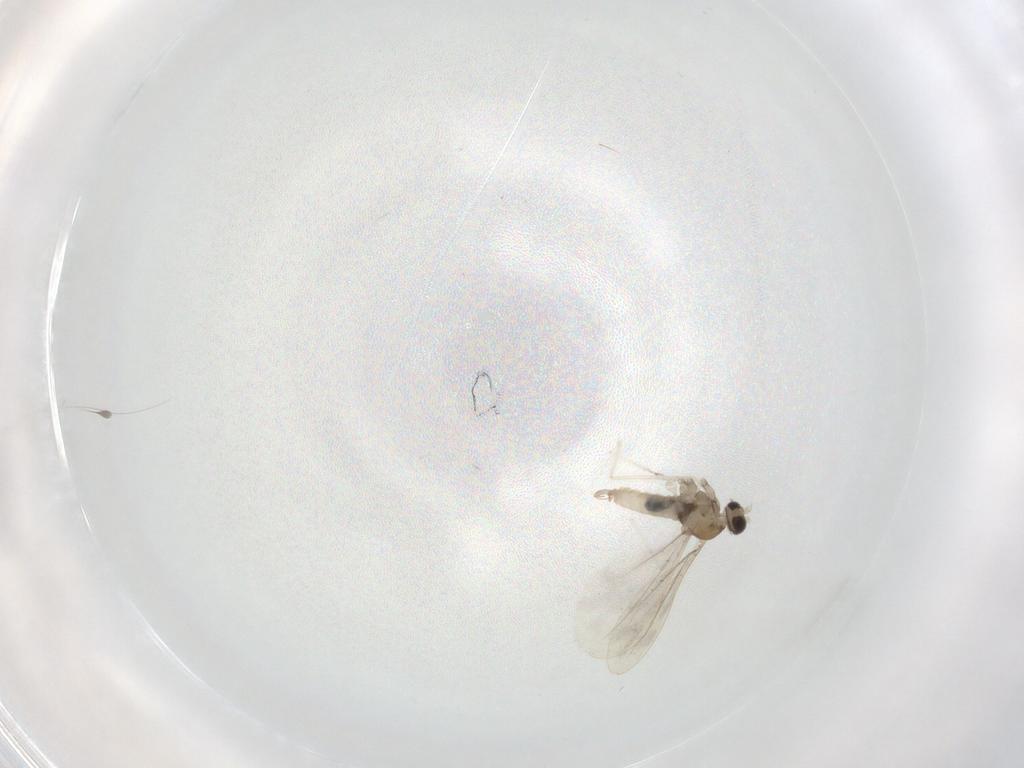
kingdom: Animalia
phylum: Arthropoda
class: Insecta
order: Diptera
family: Cecidomyiidae
